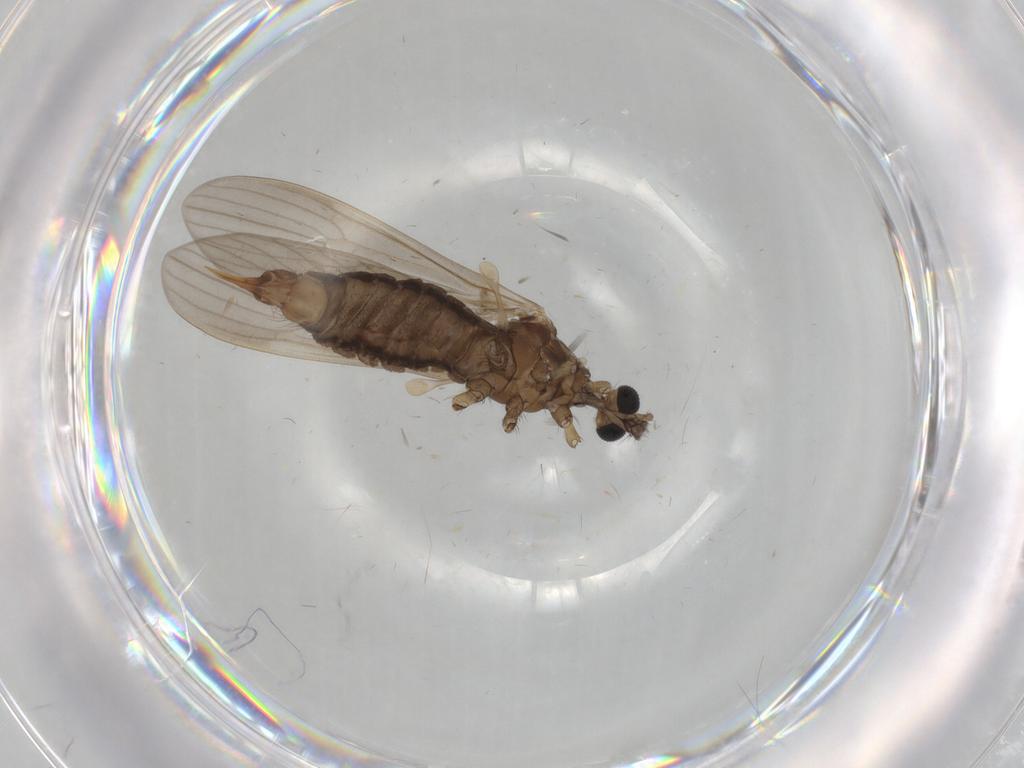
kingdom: Animalia
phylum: Arthropoda
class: Insecta
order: Diptera
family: Limoniidae
